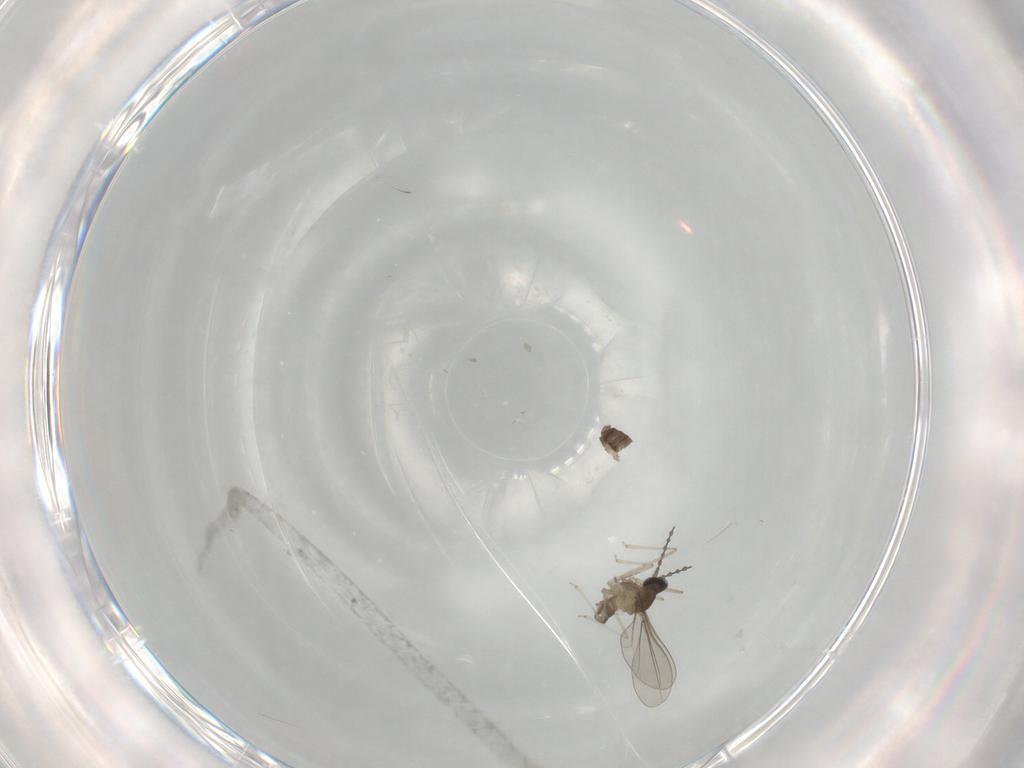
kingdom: Animalia
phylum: Arthropoda
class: Insecta
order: Diptera
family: Cecidomyiidae
